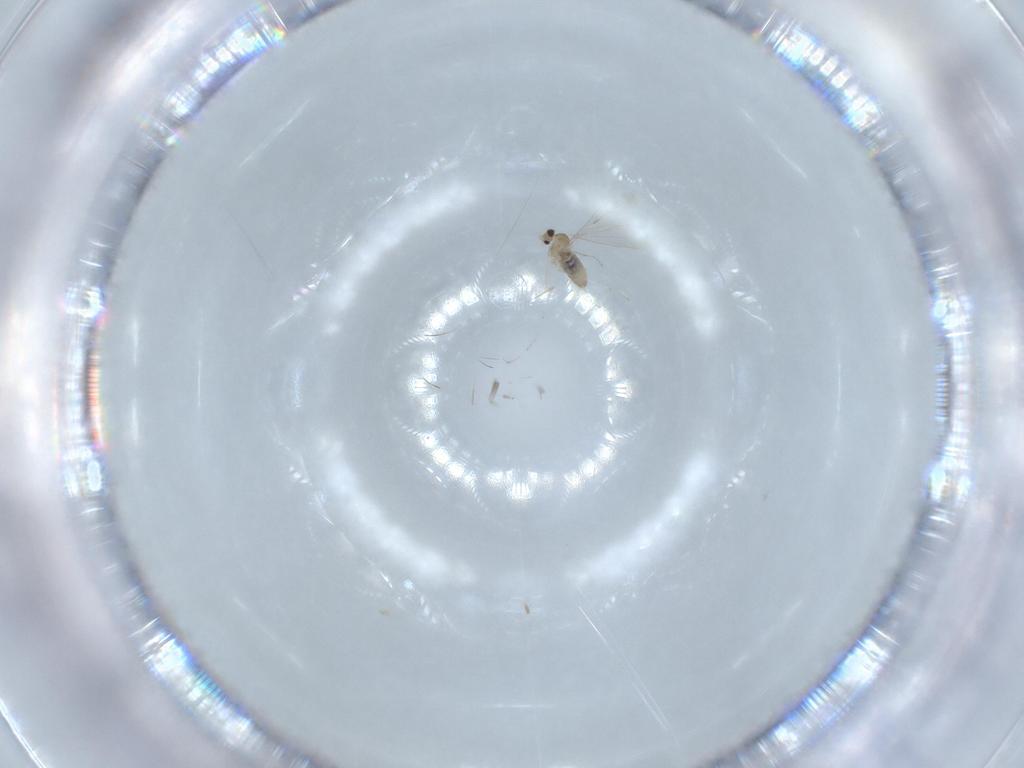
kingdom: Animalia
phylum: Arthropoda
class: Insecta
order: Diptera
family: Cecidomyiidae
